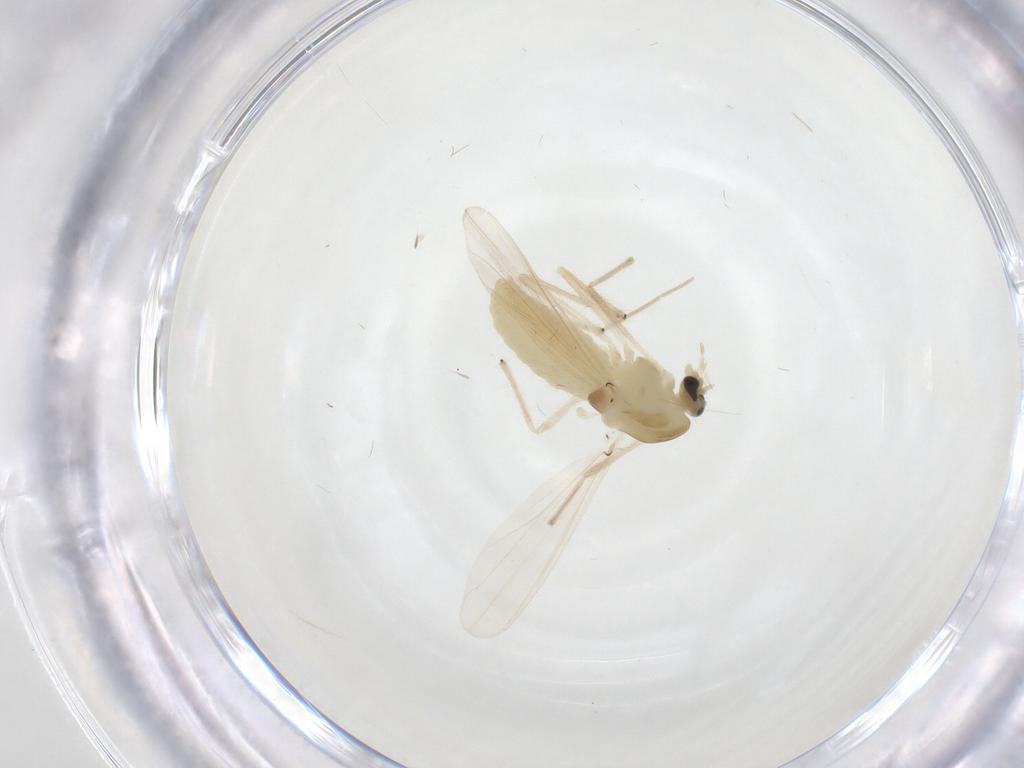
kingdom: Animalia
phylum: Arthropoda
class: Insecta
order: Diptera
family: Chironomidae
